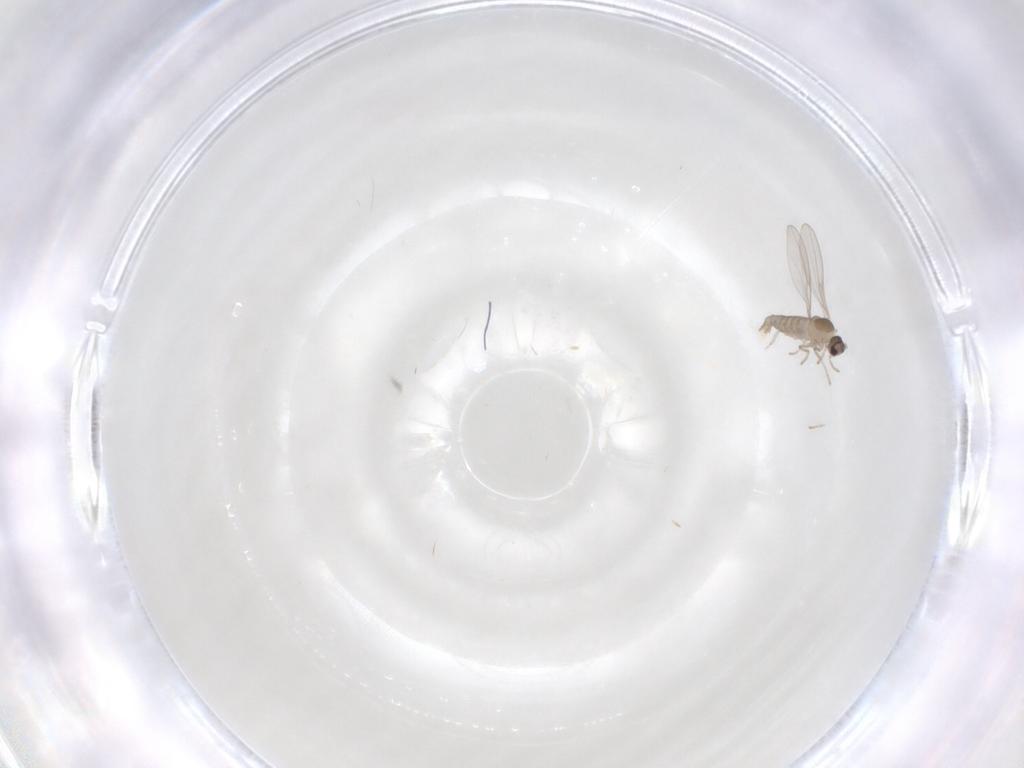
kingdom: Animalia
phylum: Arthropoda
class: Insecta
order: Diptera
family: Cecidomyiidae
